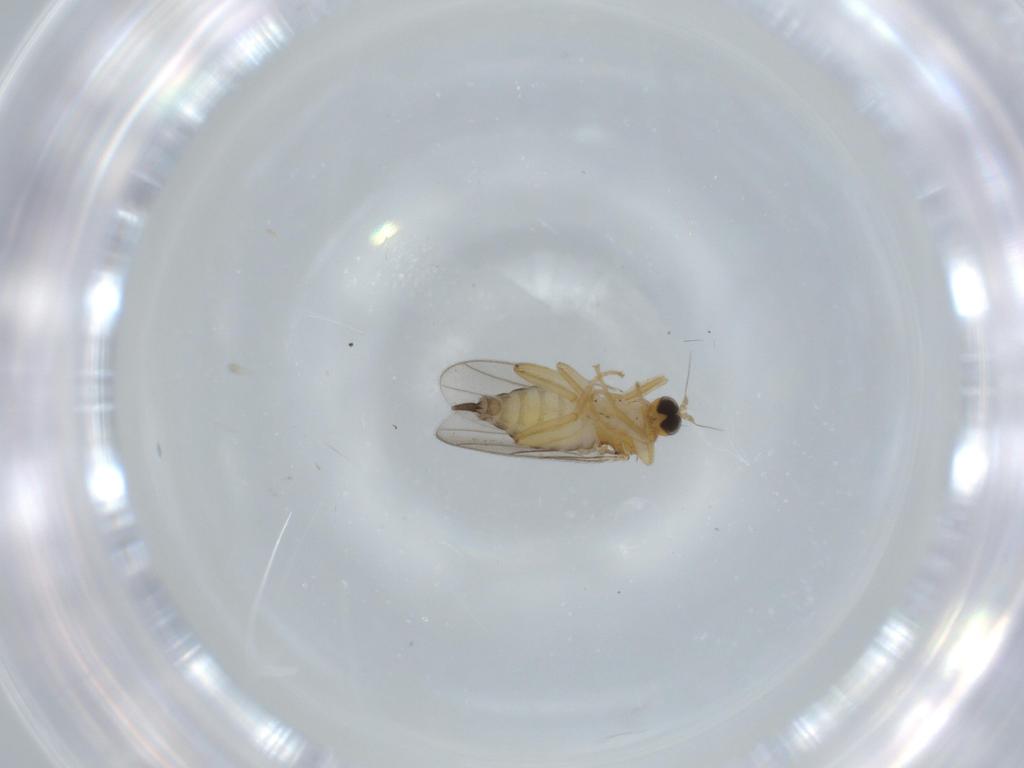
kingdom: Animalia
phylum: Arthropoda
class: Insecta
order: Diptera
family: Hybotidae
